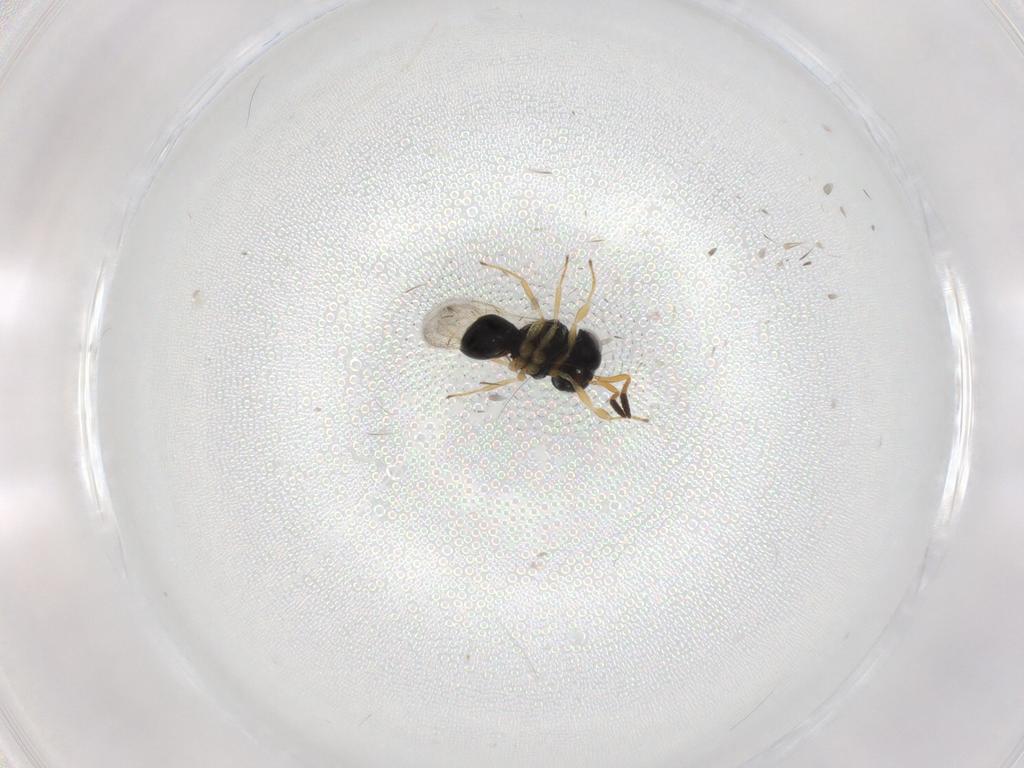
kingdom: Animalia
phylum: Arthropoda
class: Insecta
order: Hymenoptera
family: Scelionidae
